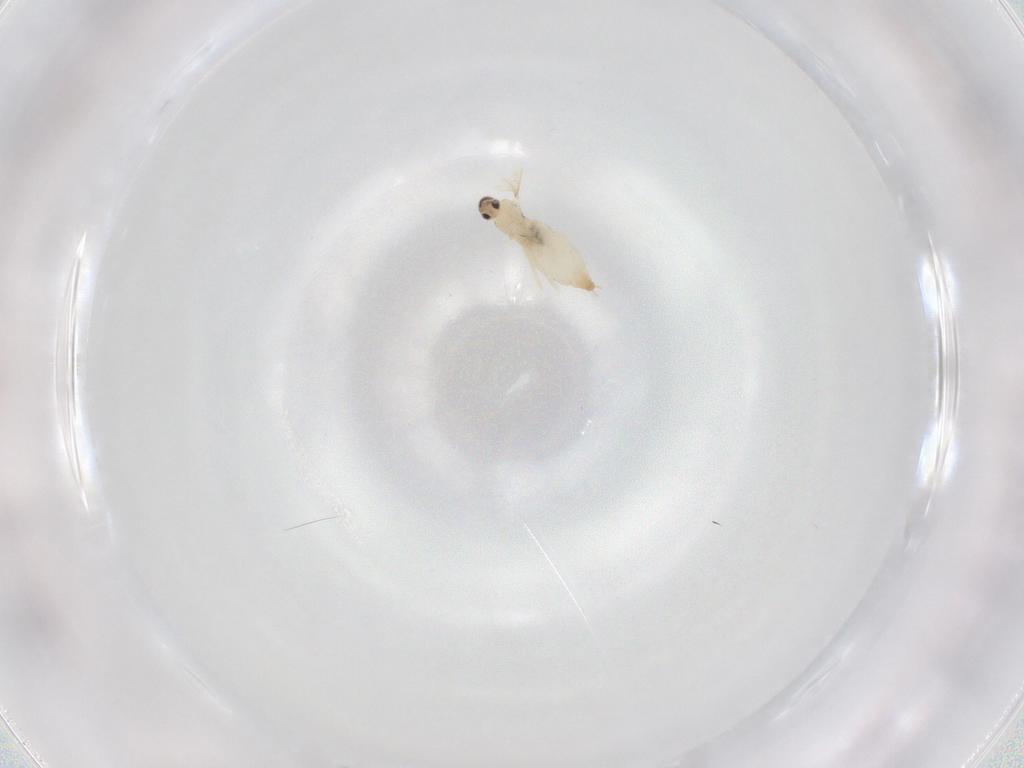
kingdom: Animalia
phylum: Arthropoda
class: Insecta
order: Diptera
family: Cecidomyiidae
